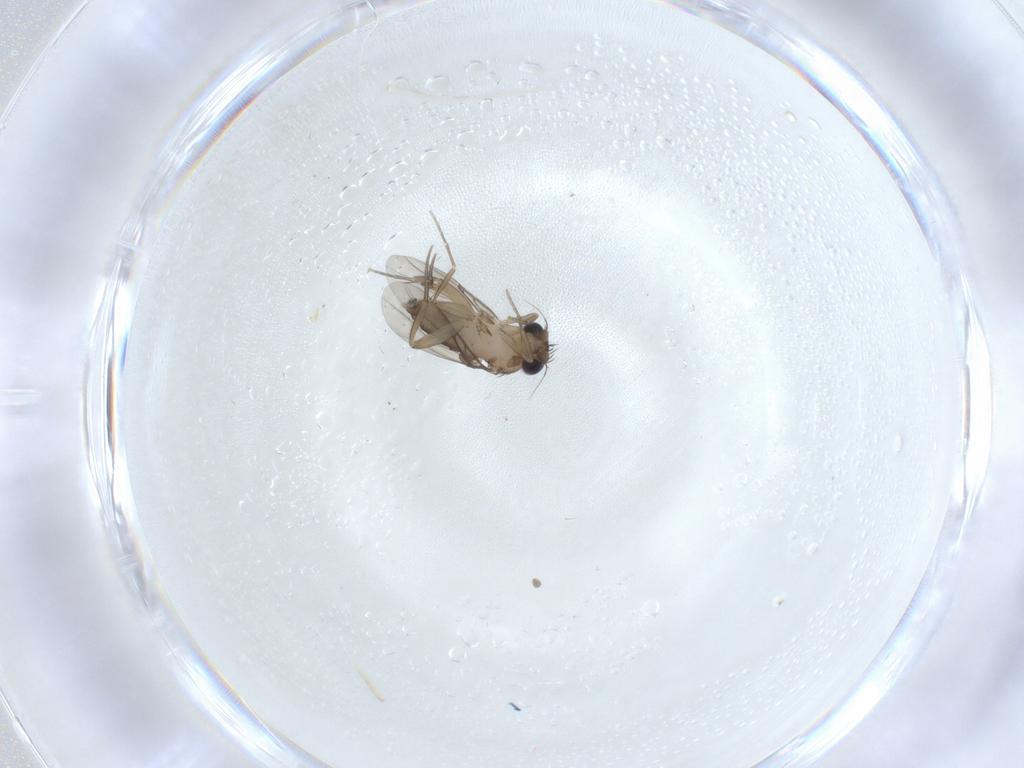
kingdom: Animalia
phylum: Arthropoda
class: Insecta
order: Diptera
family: Phoridae
